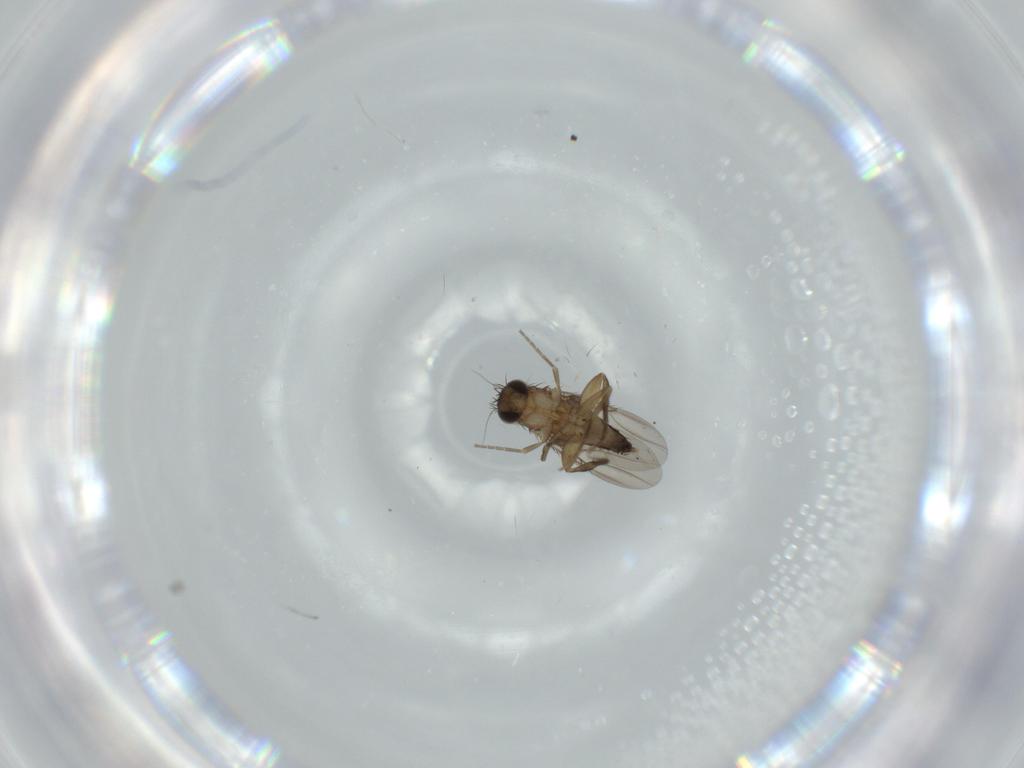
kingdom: Animalia
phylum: Arthropoda
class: Insecta
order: Diptera
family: Phoridae
